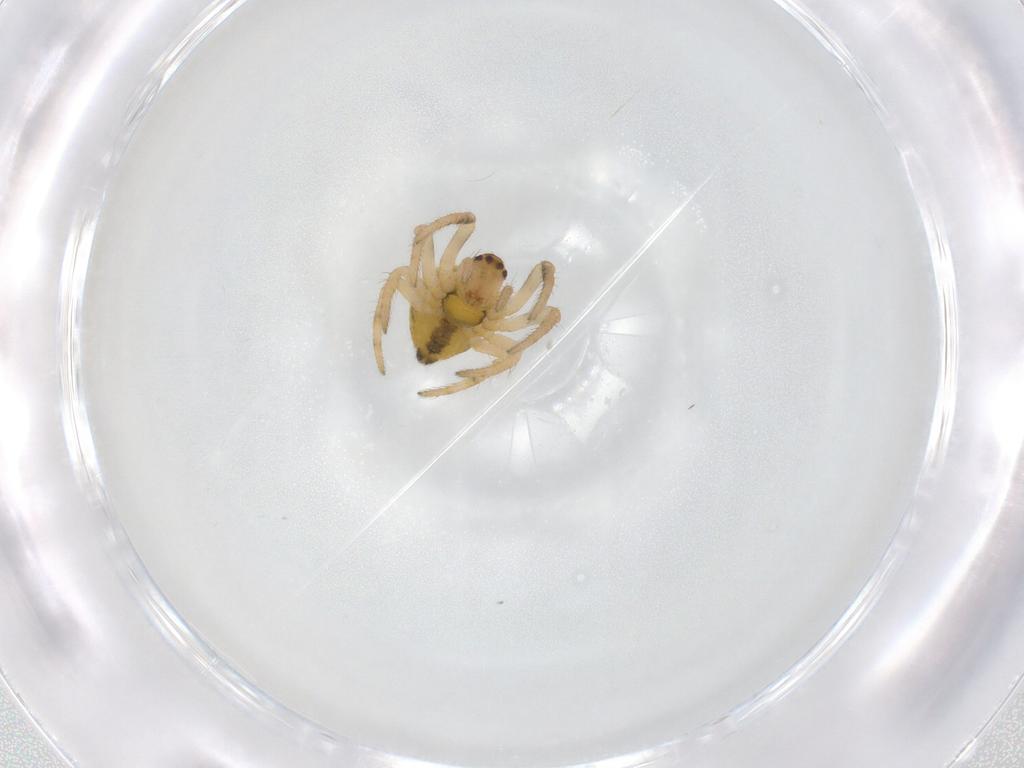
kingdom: Animalia
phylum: Arthropoda
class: Arachnida
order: Araneae
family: Araneidae
